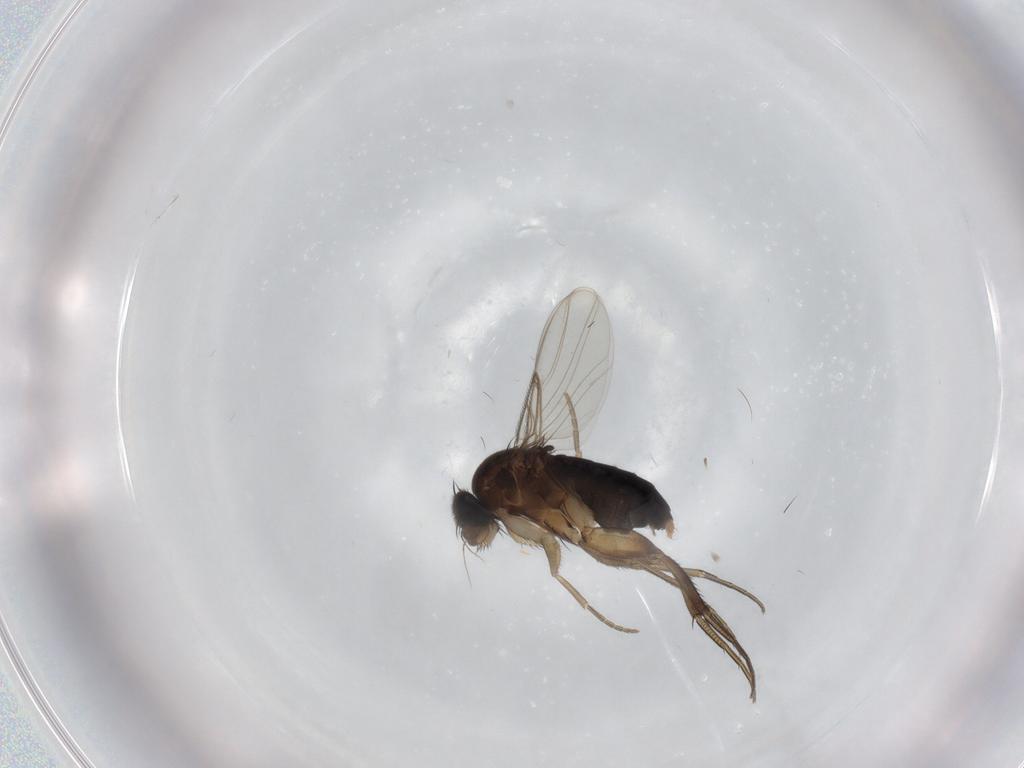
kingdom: Animalia
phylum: Arthropoda
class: Insecta
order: Diptera
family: Phoridae
